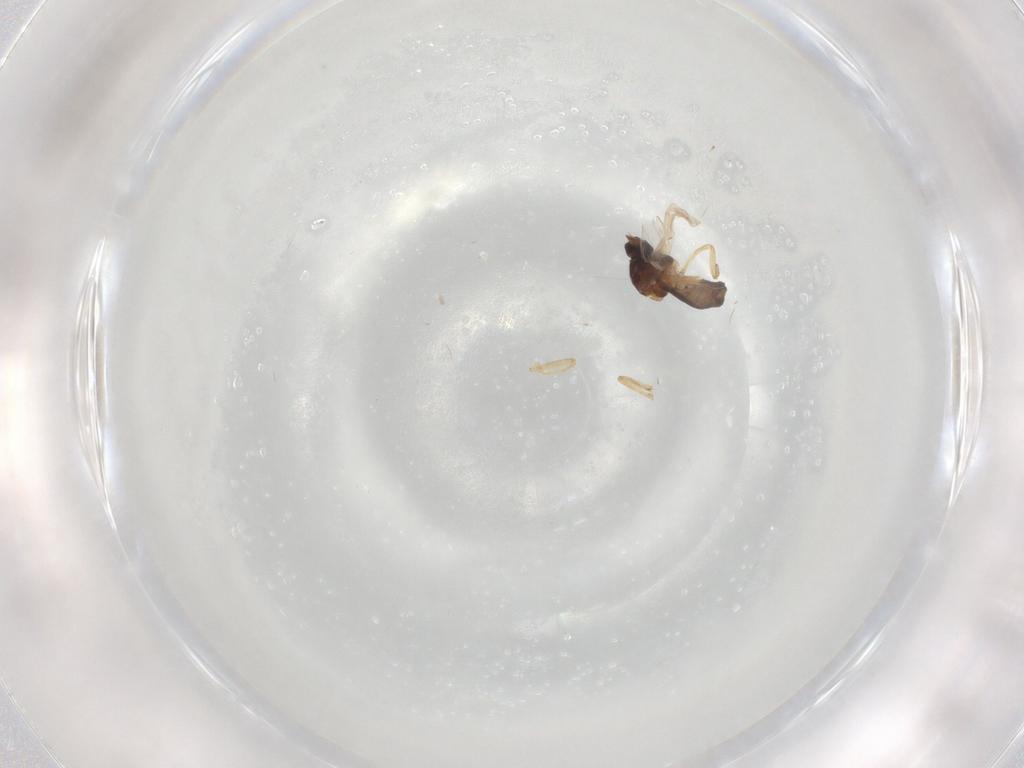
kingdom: Animalia
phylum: Arthropoda
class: Insecta
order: Diptera
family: Ceratopogonidae
